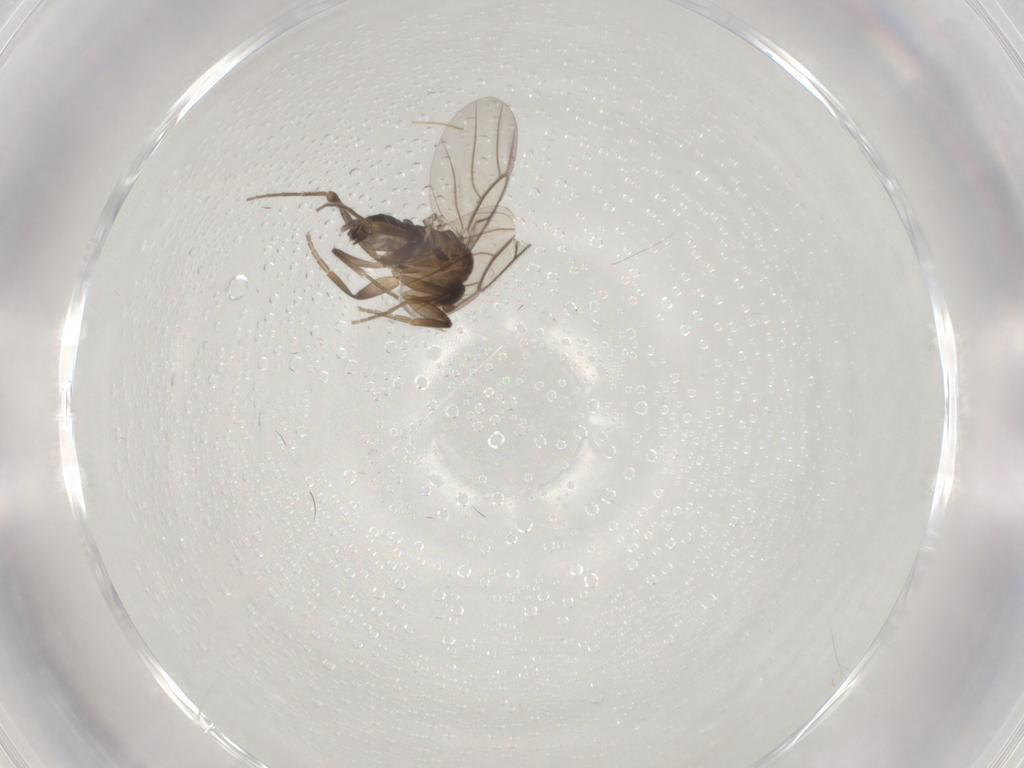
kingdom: Animalia
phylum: Arthropoda
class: Insecta
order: Diptera
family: Phoridae
